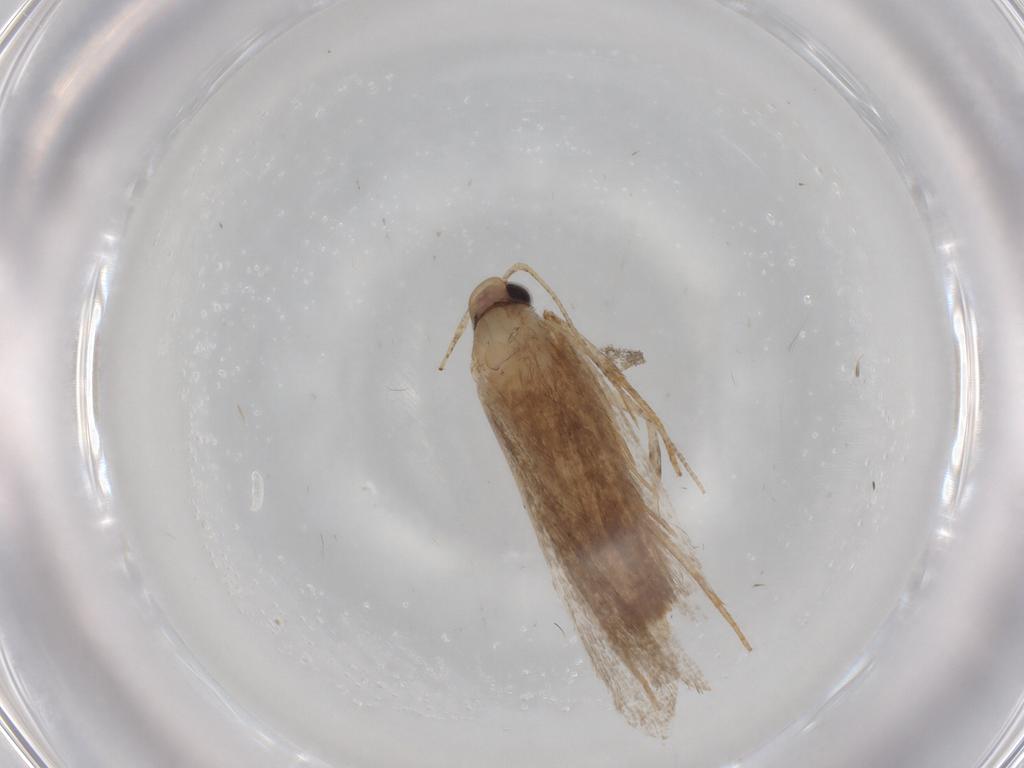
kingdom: Animalia
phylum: Arthropoda
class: Insecta
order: Lepidoptera
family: Gelechiidae
